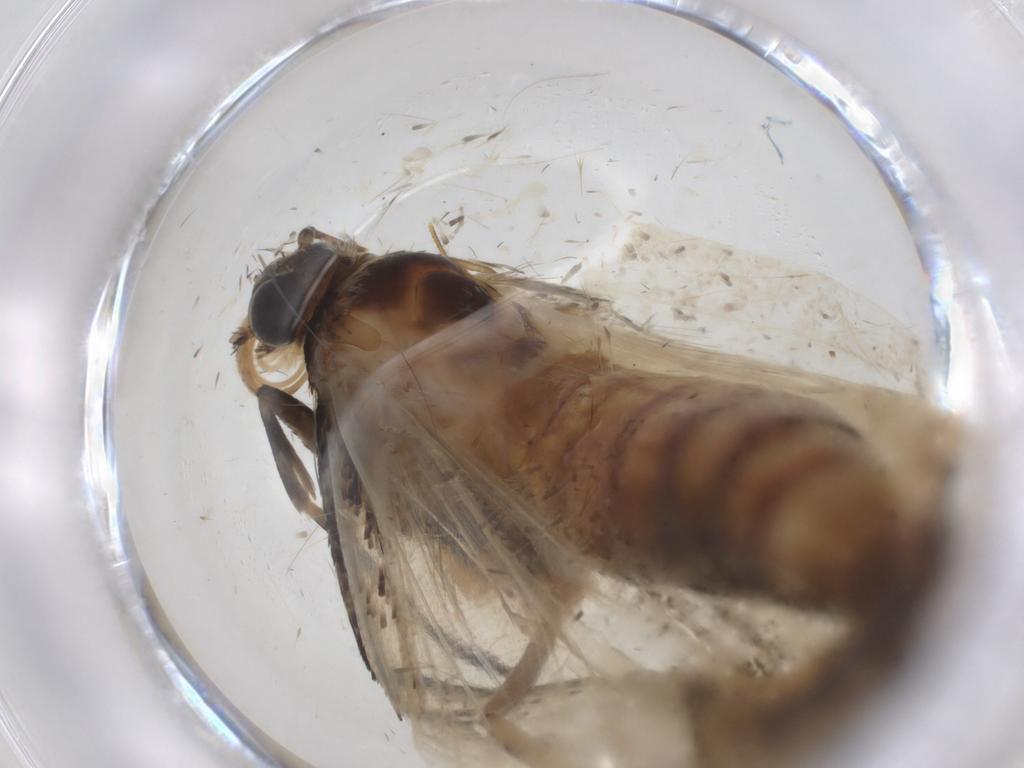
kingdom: Animalia
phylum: Arthropoda
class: Insecta
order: Lepidoptera
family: Crambidae
